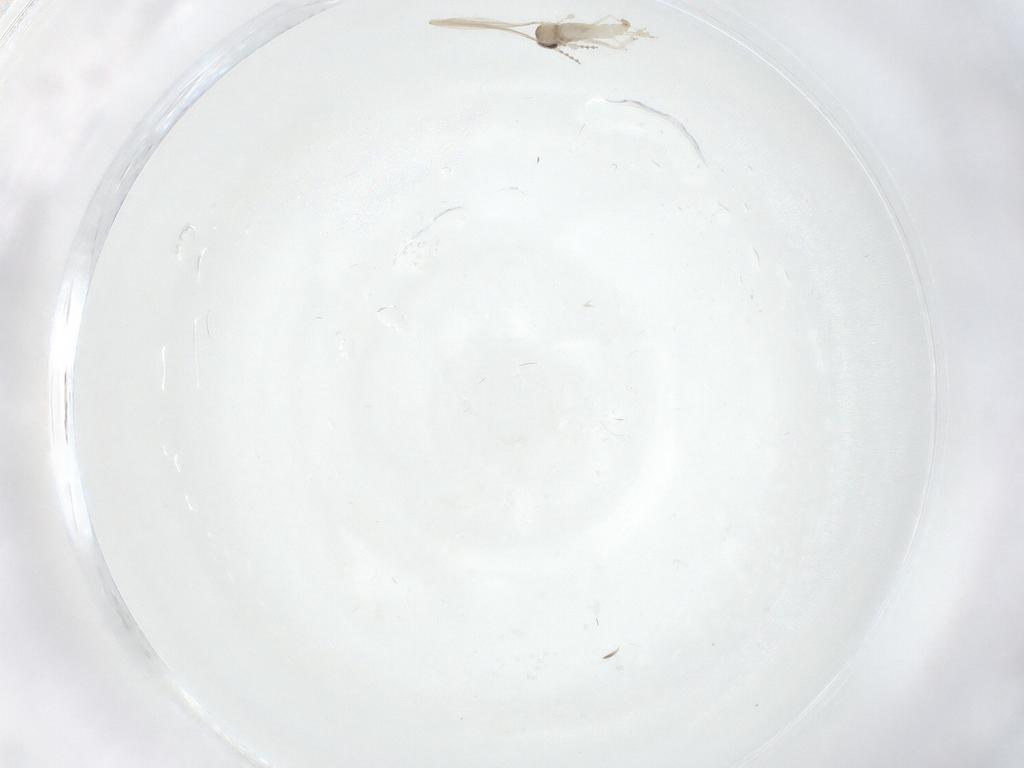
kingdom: Animalia
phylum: Arthropoda
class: Insecta
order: Diptera
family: Cecidomyiidae
